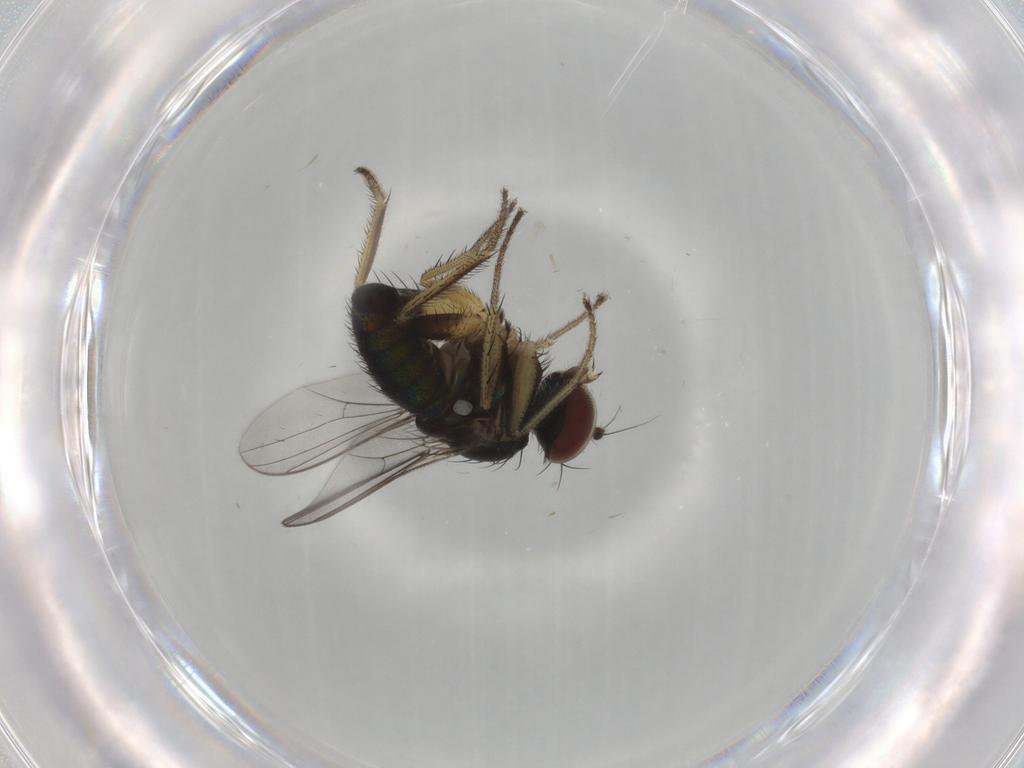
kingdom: Animalia
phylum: Arthropoda
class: Insecta
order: Diptera
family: Dolichopodidae
